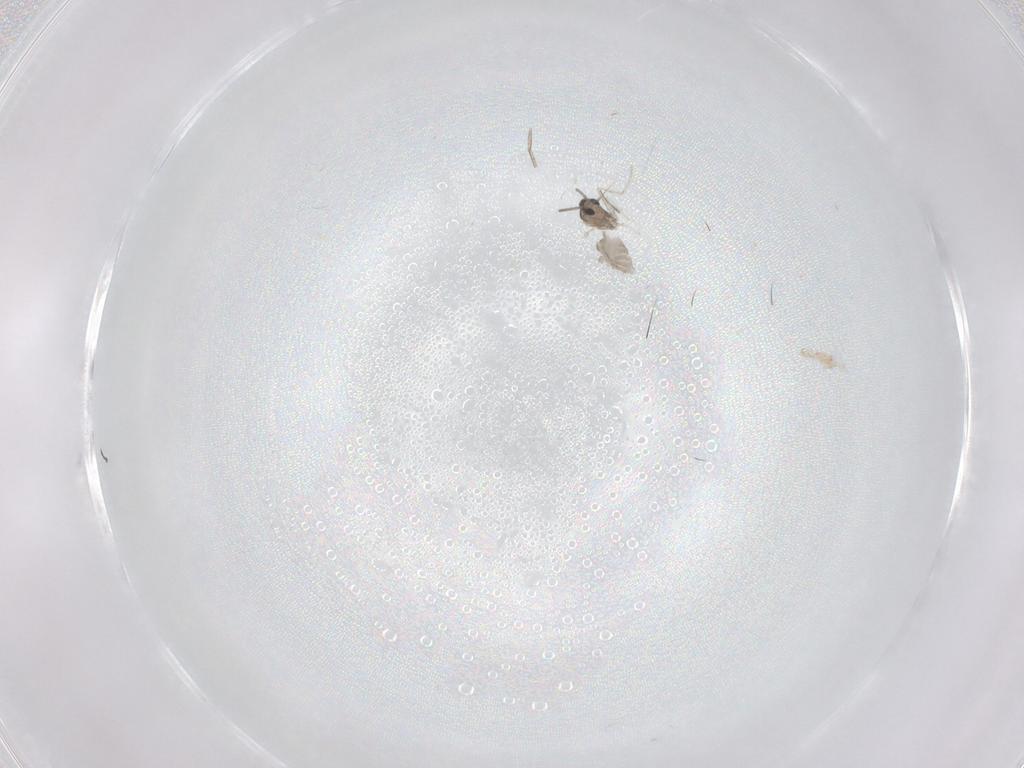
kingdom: Animalia
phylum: Arthropoda
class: Insecta
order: Diptera
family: Cecidomyiidae
